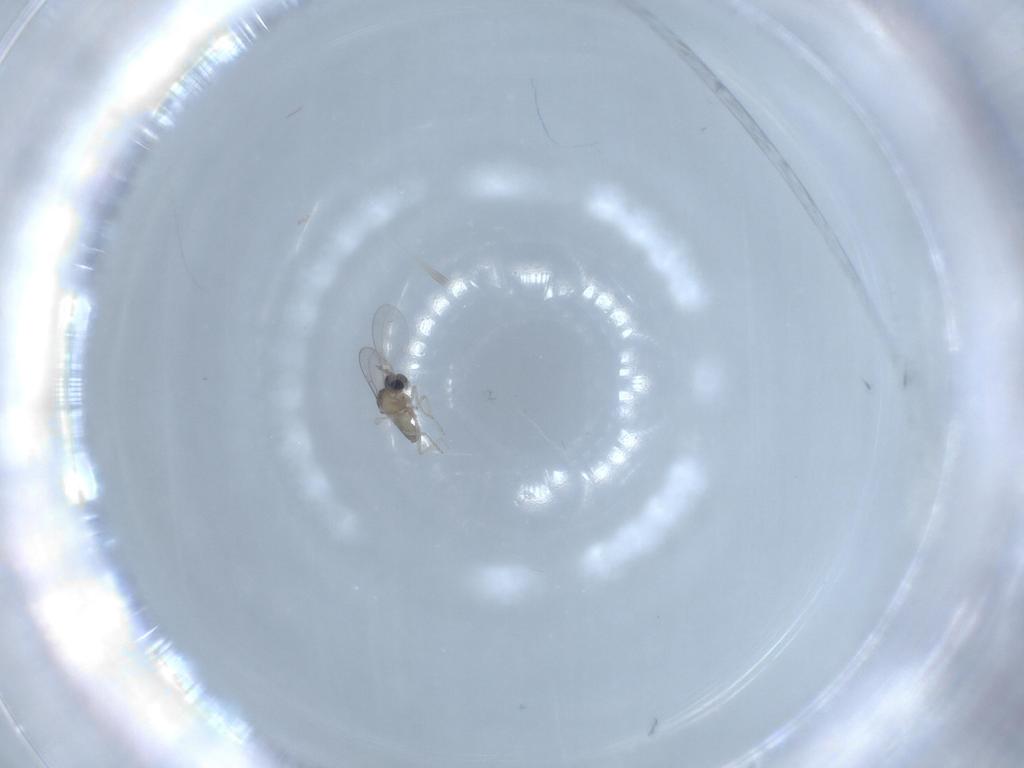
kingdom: Animalia
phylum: Arthropoda
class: Insecta
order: Diptera
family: Cecidomyiidae
